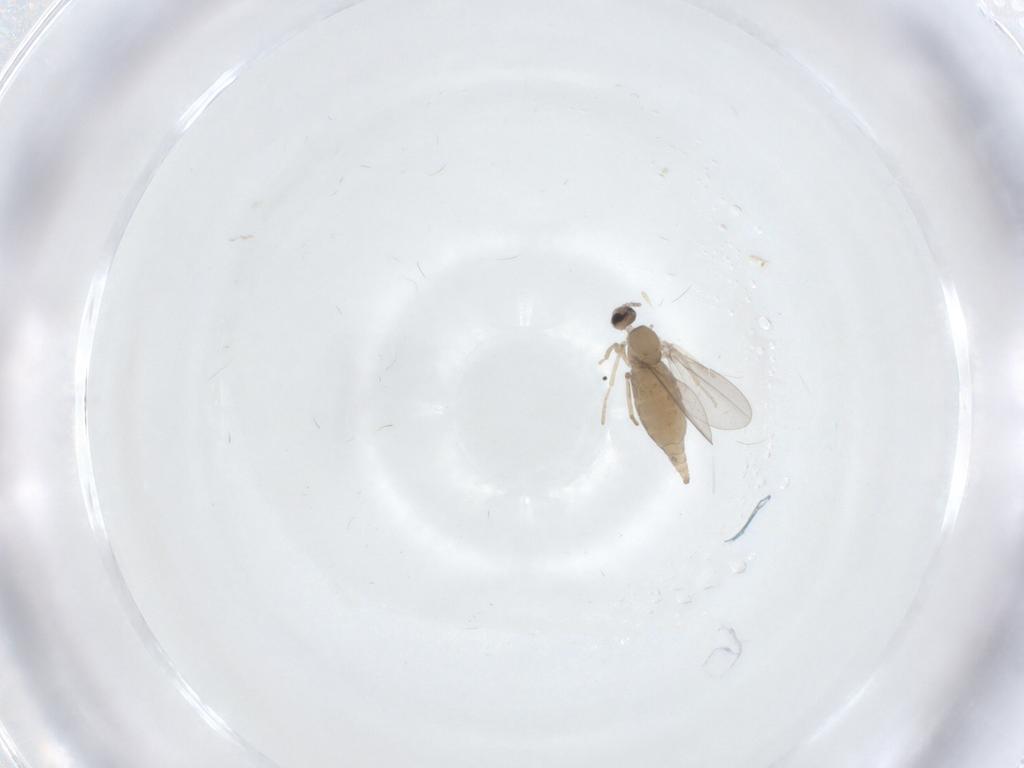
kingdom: Animalia
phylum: Arthropoda
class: Insecta
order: Diptera
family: Cecidomyiidae
